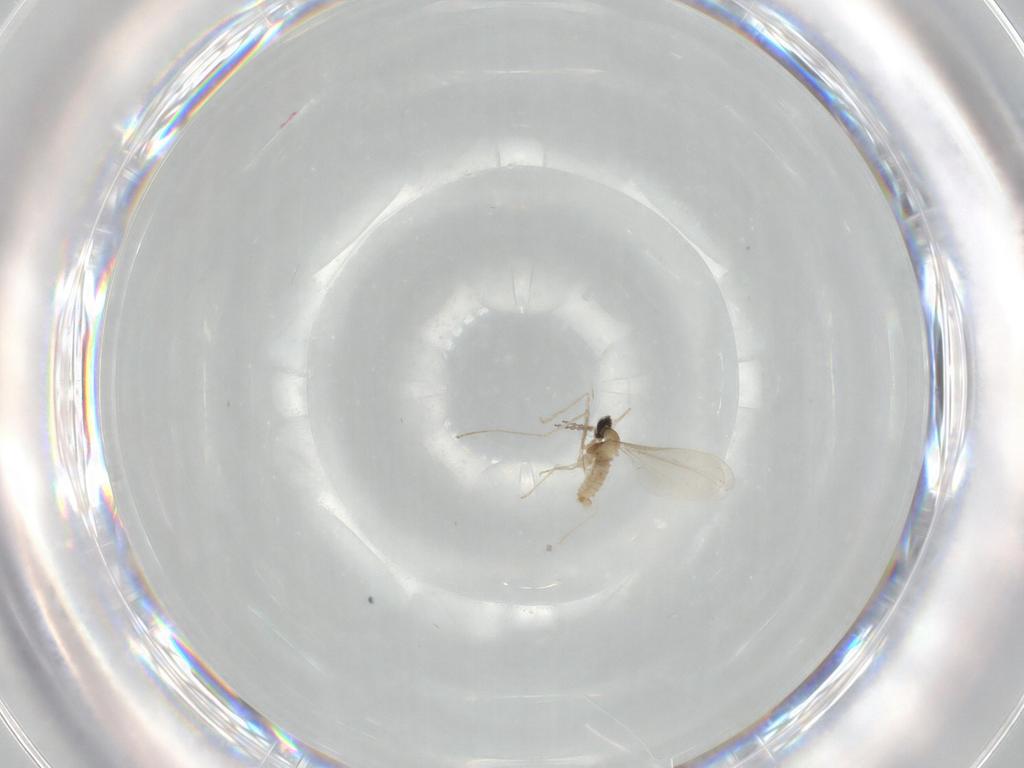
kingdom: Animalia
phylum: Arthropoda
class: Insecta
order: Diptera
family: Cecidomyiidae
